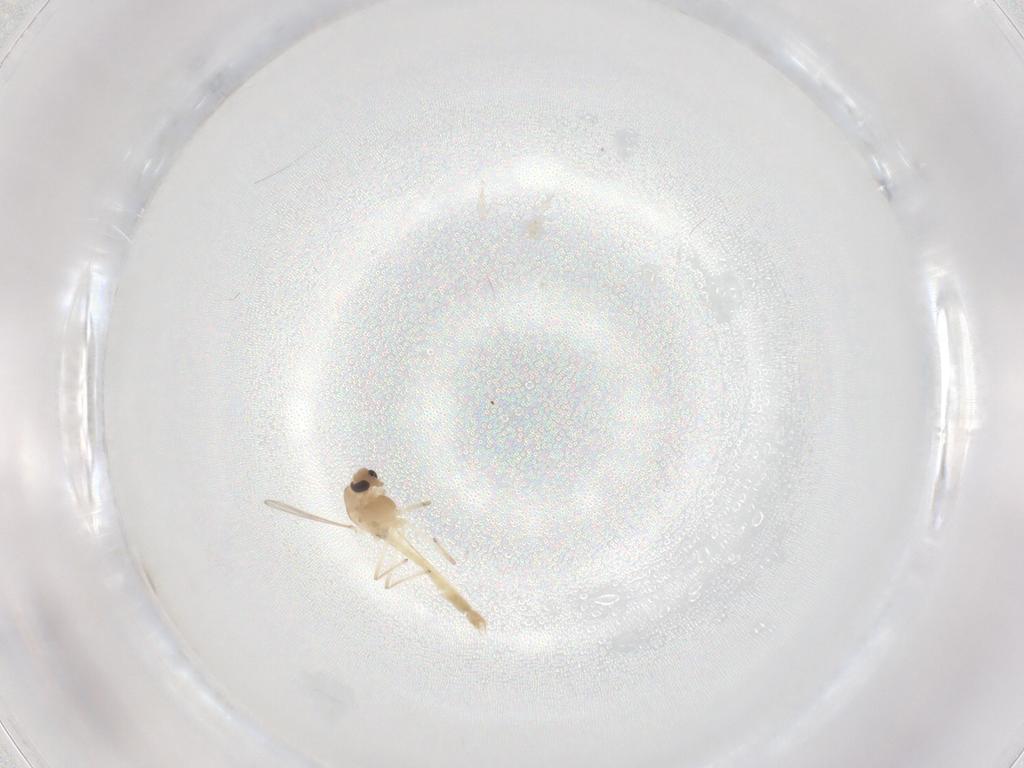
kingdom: Animalia
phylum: Arthropoda
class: Insecta
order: Diptera
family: Chironomidae
